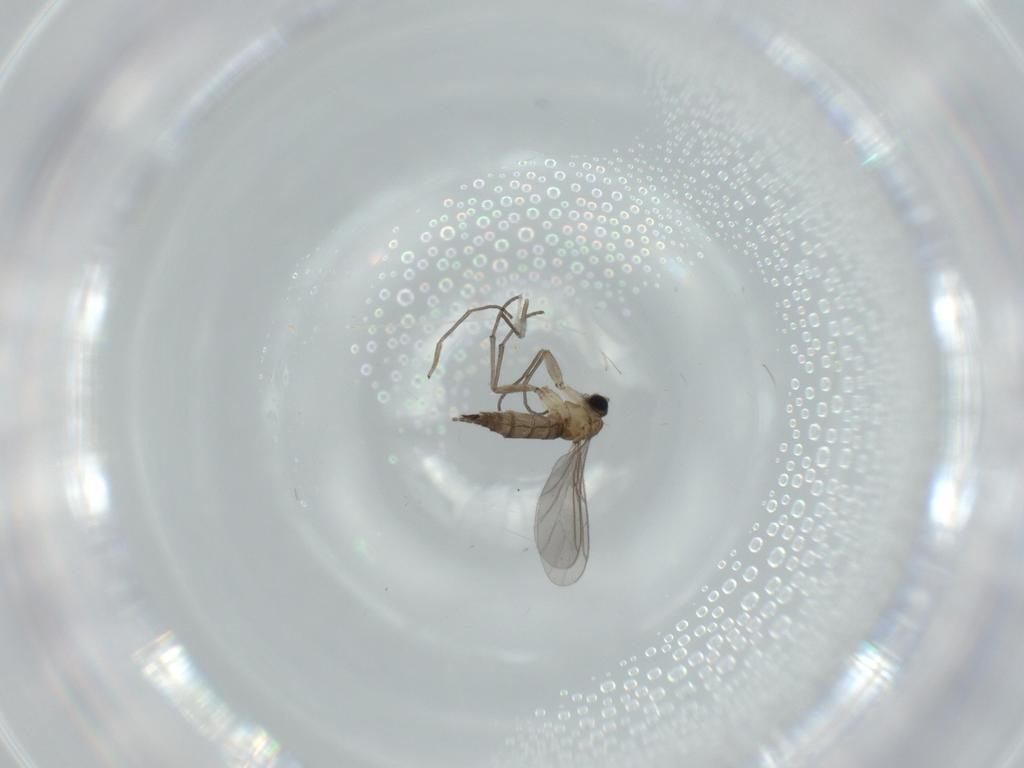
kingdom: Animalia
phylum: Arthropoda
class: Insecta
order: Diptera
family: Sciaridae
